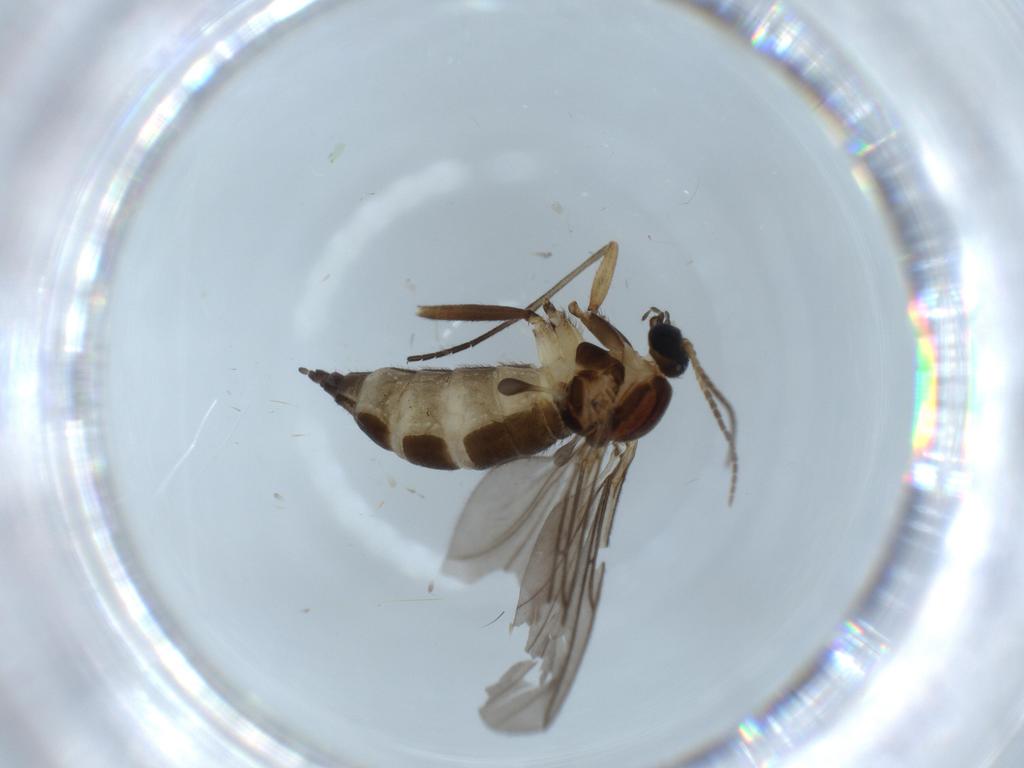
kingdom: Animalia
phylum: Arthropoda
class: Insecta
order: Diptera
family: Sciaridae
